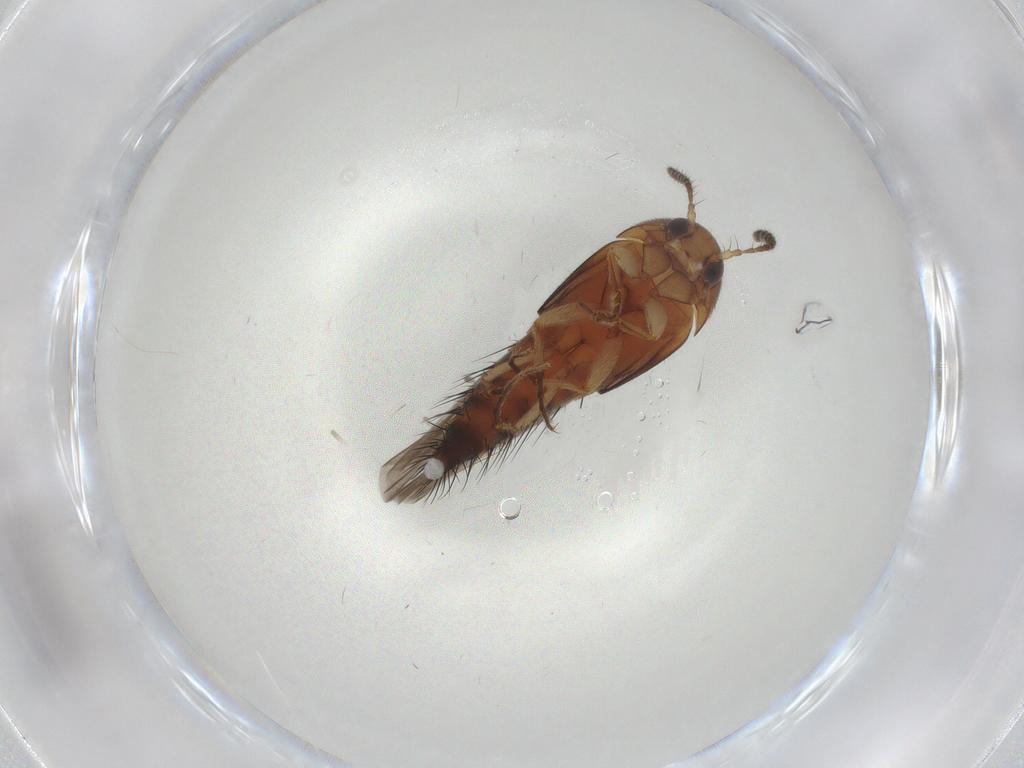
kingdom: Animalia
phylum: Arthropoda
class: Insecta
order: Coleoptera
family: Staphylinidae
